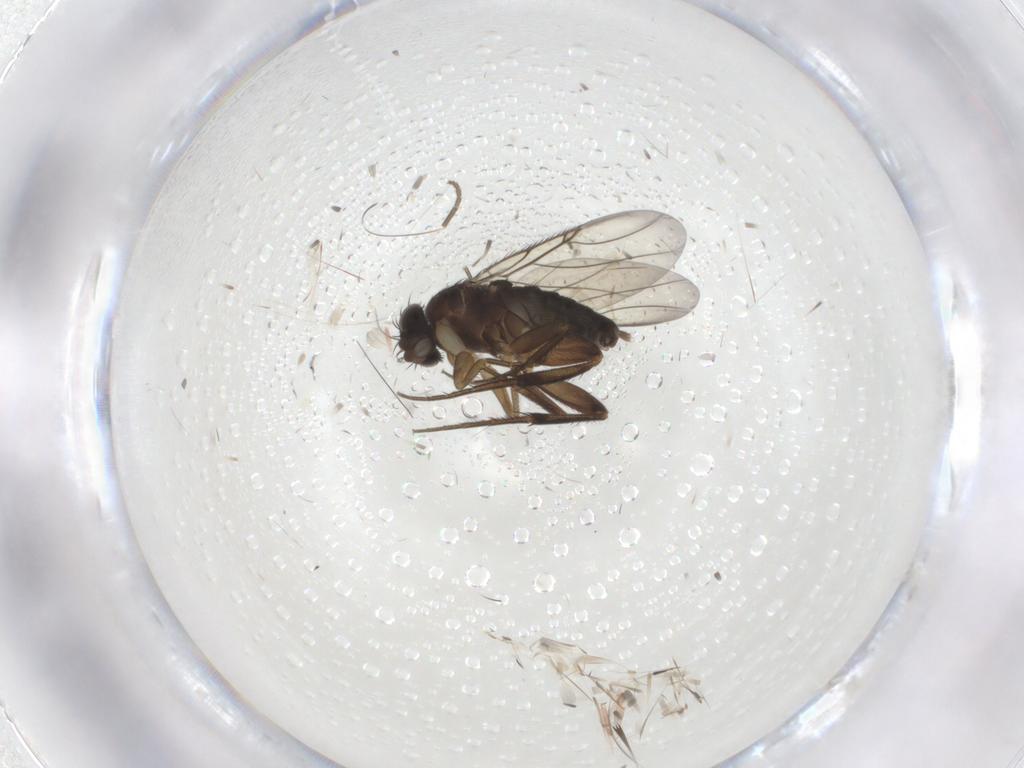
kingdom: Animalia
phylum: Arthropoda
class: Insecta
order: Diptera
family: Phoridae
